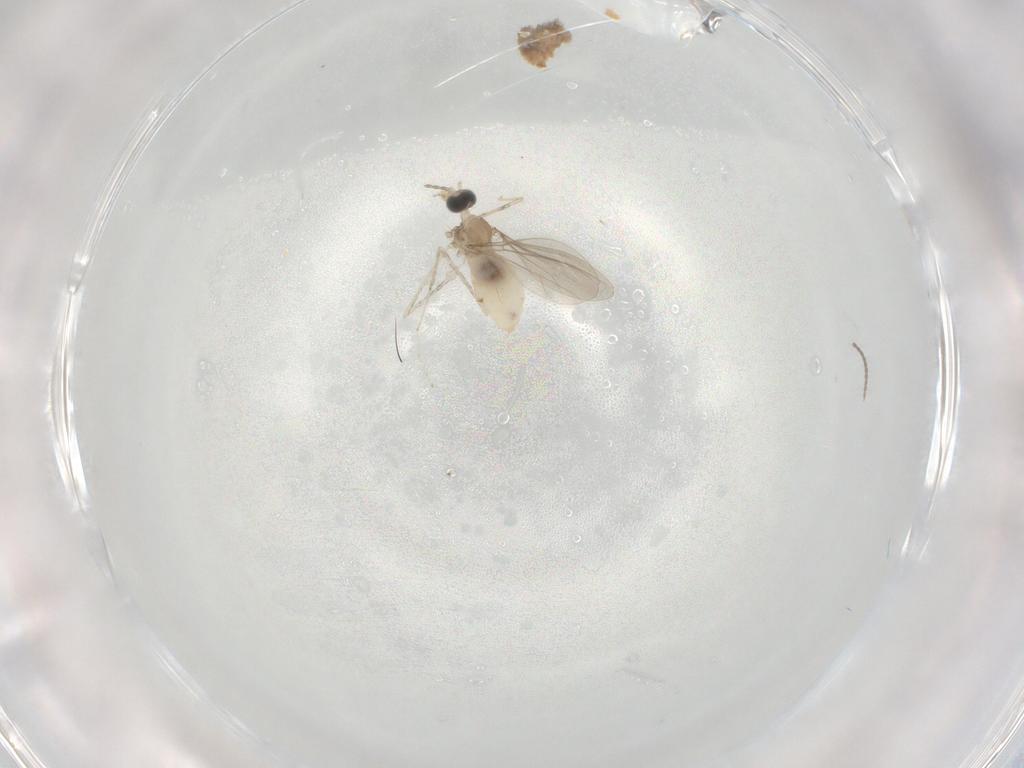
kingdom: Animalia
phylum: Arthropoda
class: Insecta
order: Diptera
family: Cecidomyiidae
